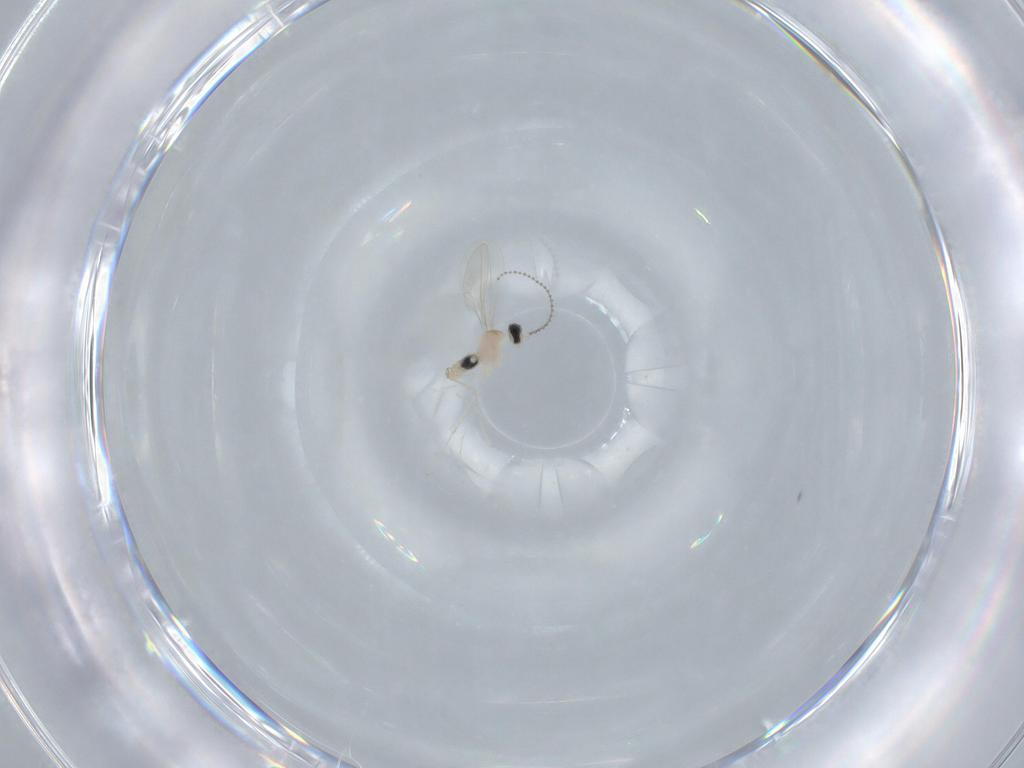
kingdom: Animalia
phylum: Arthropoda
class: Insecta
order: Diptera
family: Cecidomyiidae
